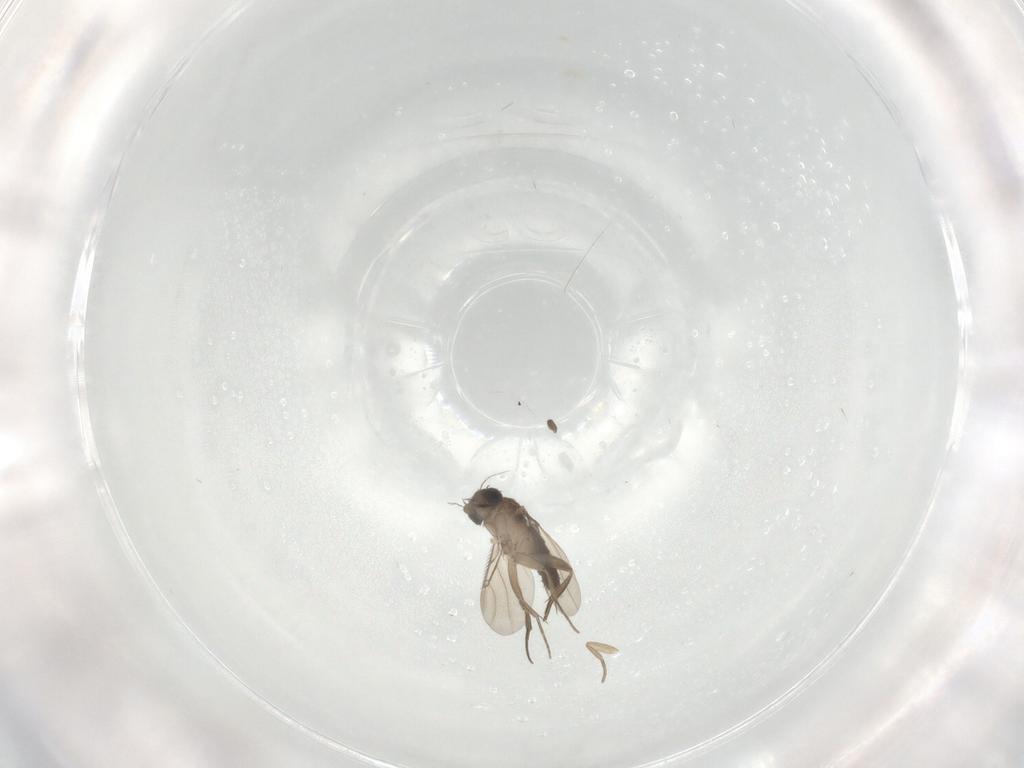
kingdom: Animalia
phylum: Arthropoda
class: Insecta
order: Diptera
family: Phoridae
